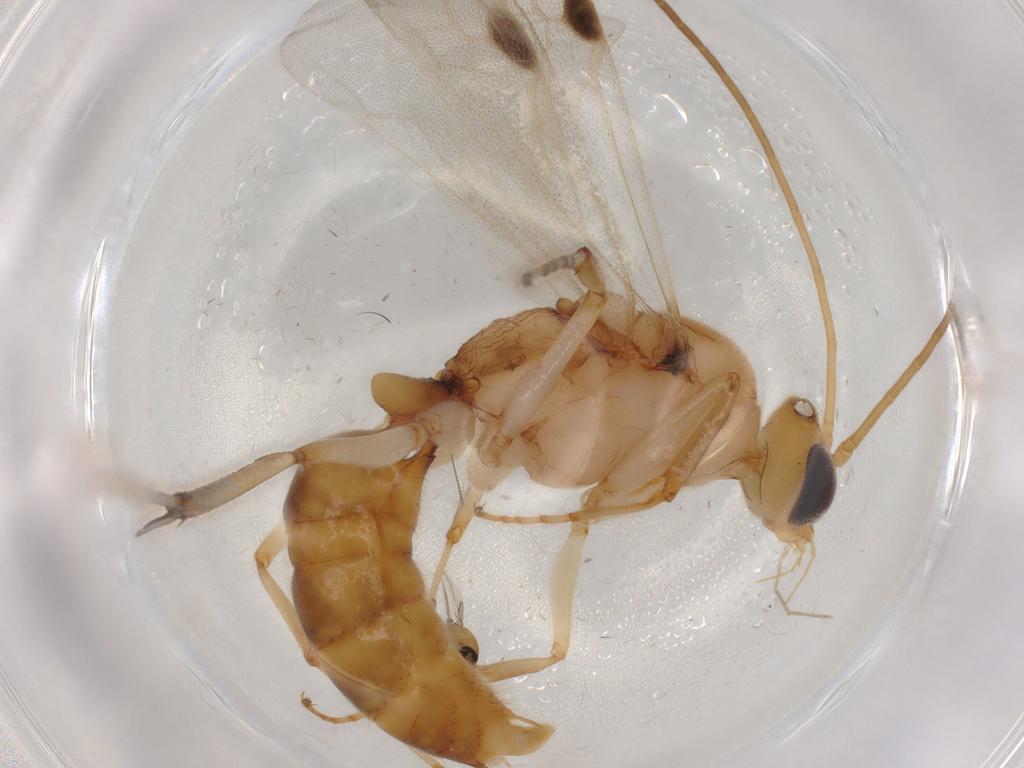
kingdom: Animalia
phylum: Arthropoda
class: Insecta
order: Hymenoptera
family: Formicidae
